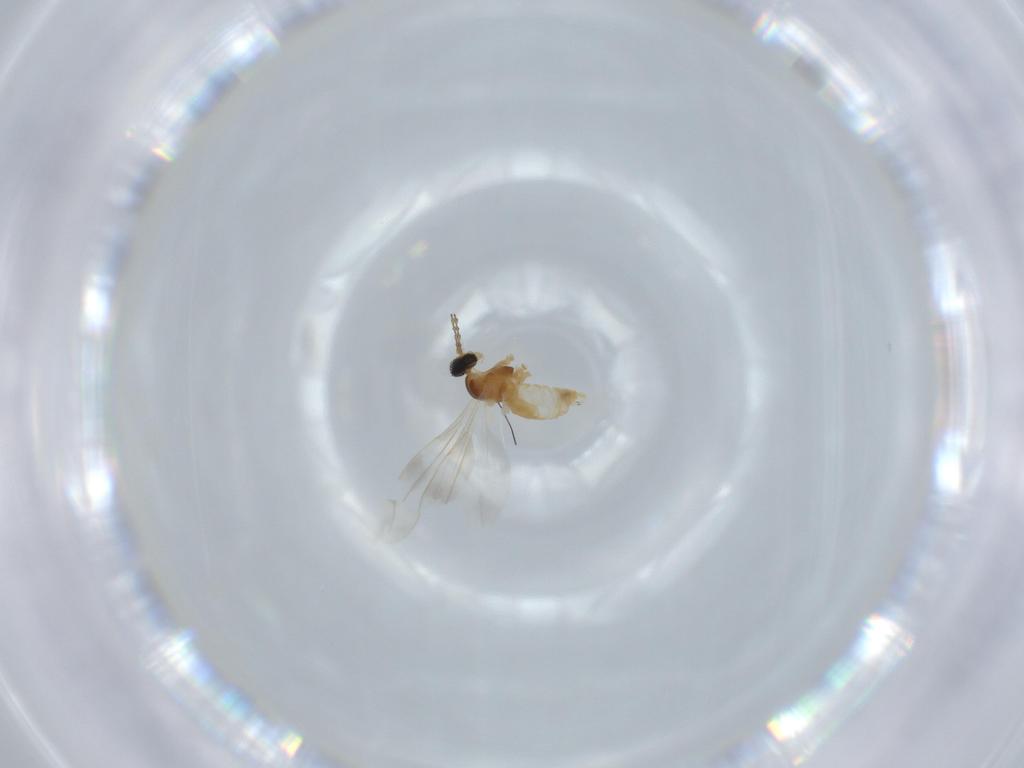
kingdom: Animalia
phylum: Arthropoda
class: Insecta
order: Diptera
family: Cecidomyiidae
